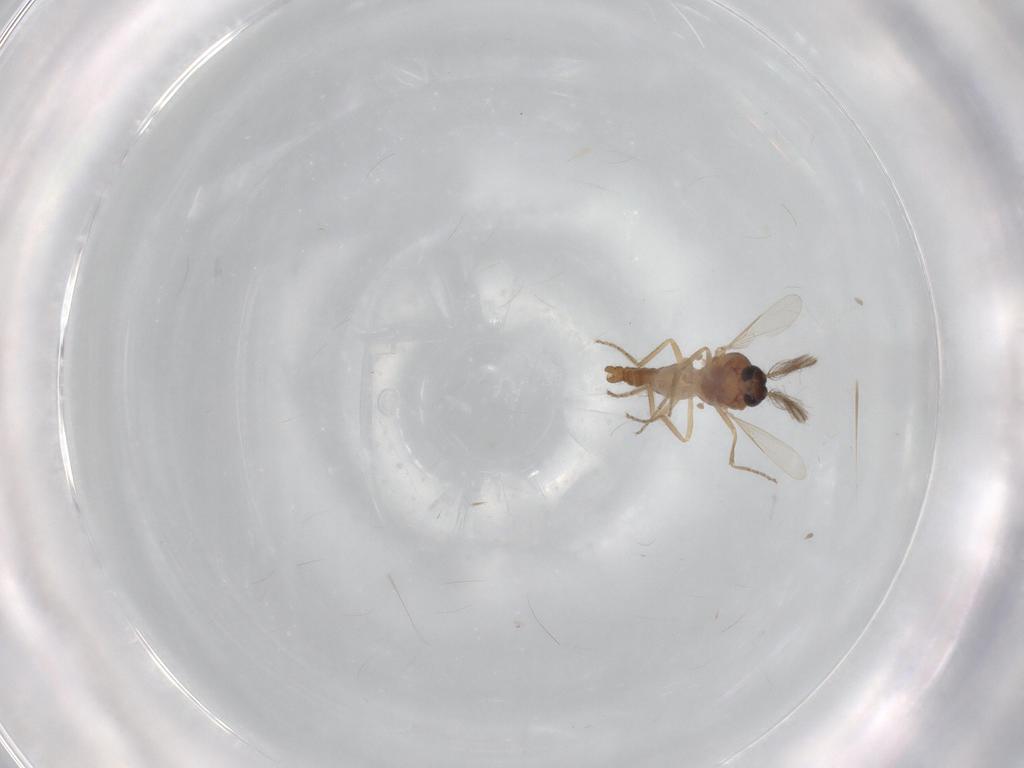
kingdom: Animalia
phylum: Arthropoda
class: Insecta
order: Diptera
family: Ceratopogonidae
